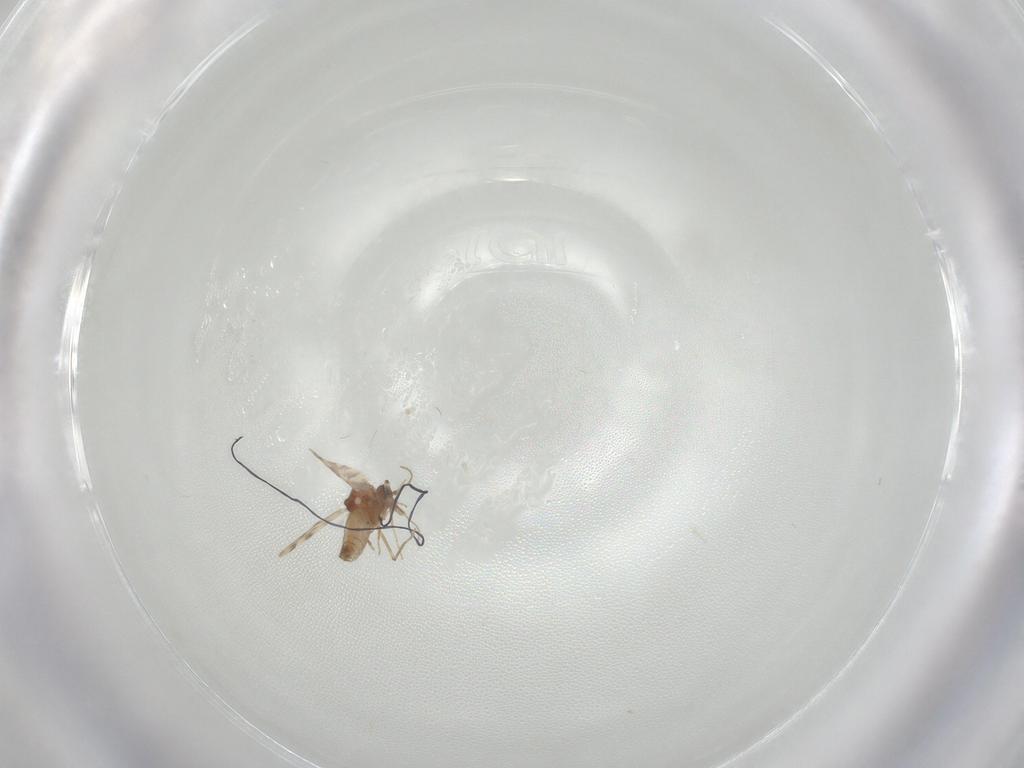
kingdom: Animalia
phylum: Arthropoda
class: Insecta
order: Diptera
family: Ceratopogonidae
